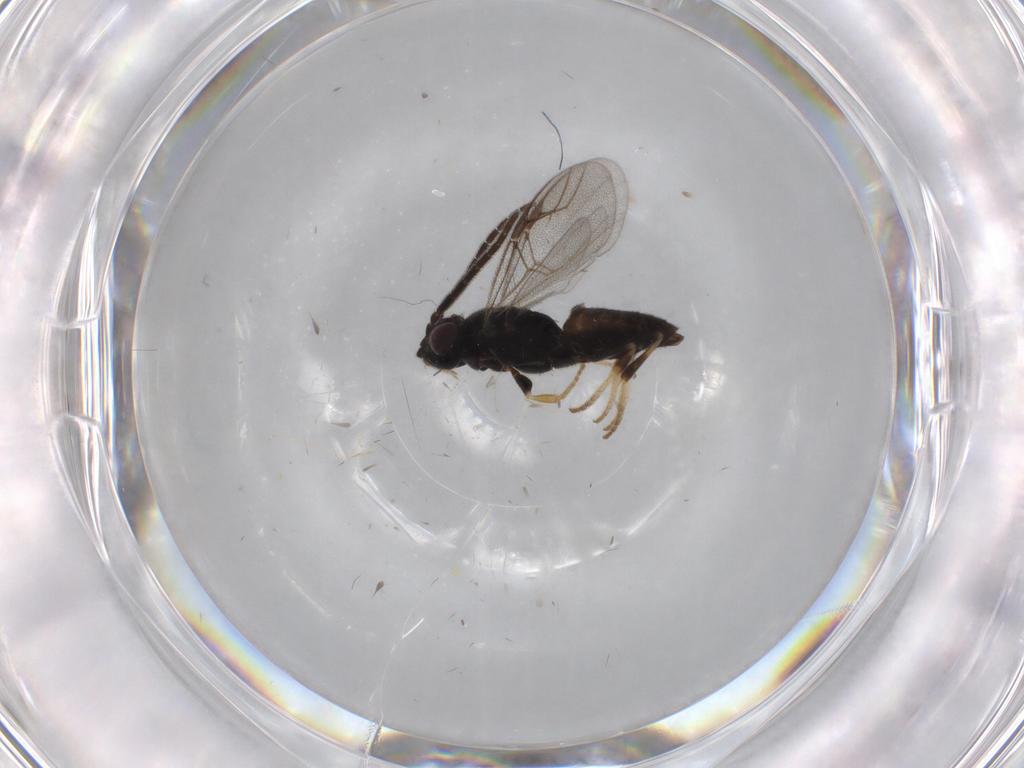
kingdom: Animalia
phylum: Arthropoda
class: Insecta
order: Hymenoptera
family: Dryinidae
